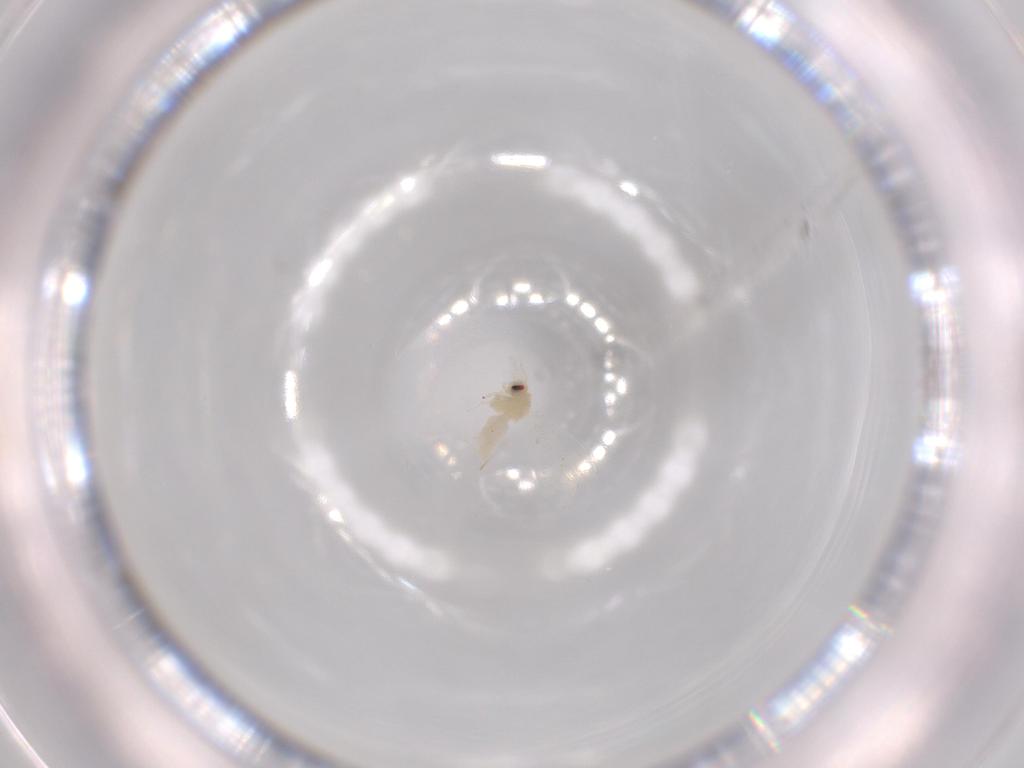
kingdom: Animalia
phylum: Arthropoda
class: Insecta
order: Hemiptera
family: Aleyrodidae
